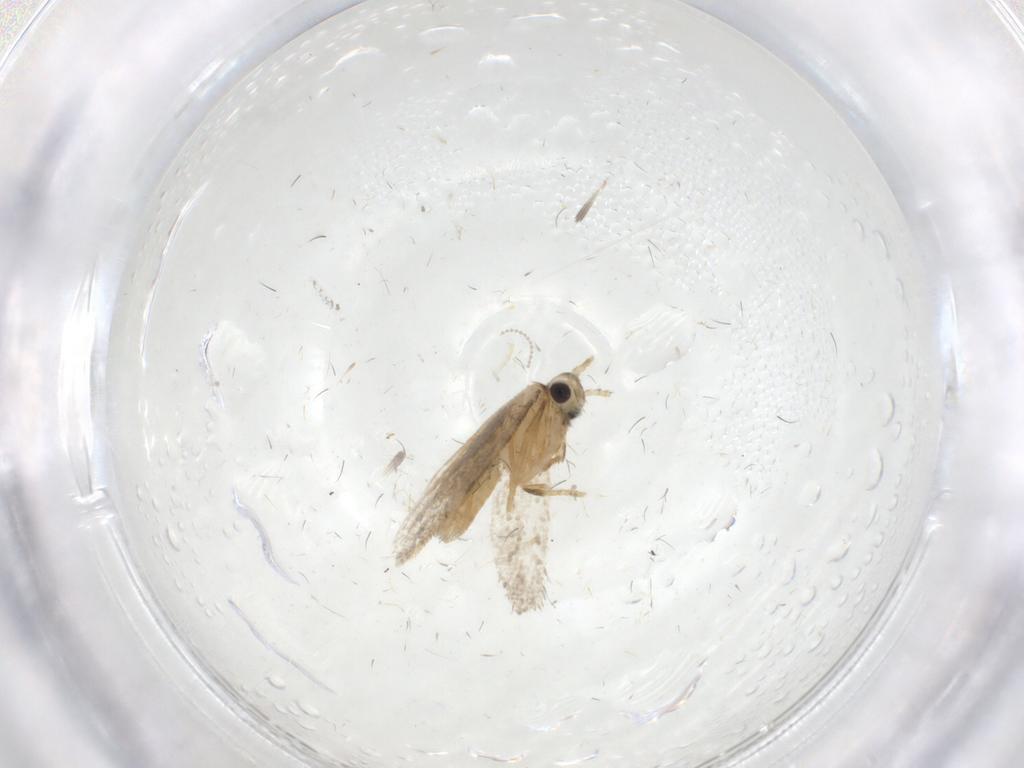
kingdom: Animalia
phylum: Arthropoda
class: Insecta
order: Lepidoptera
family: Psychidae
